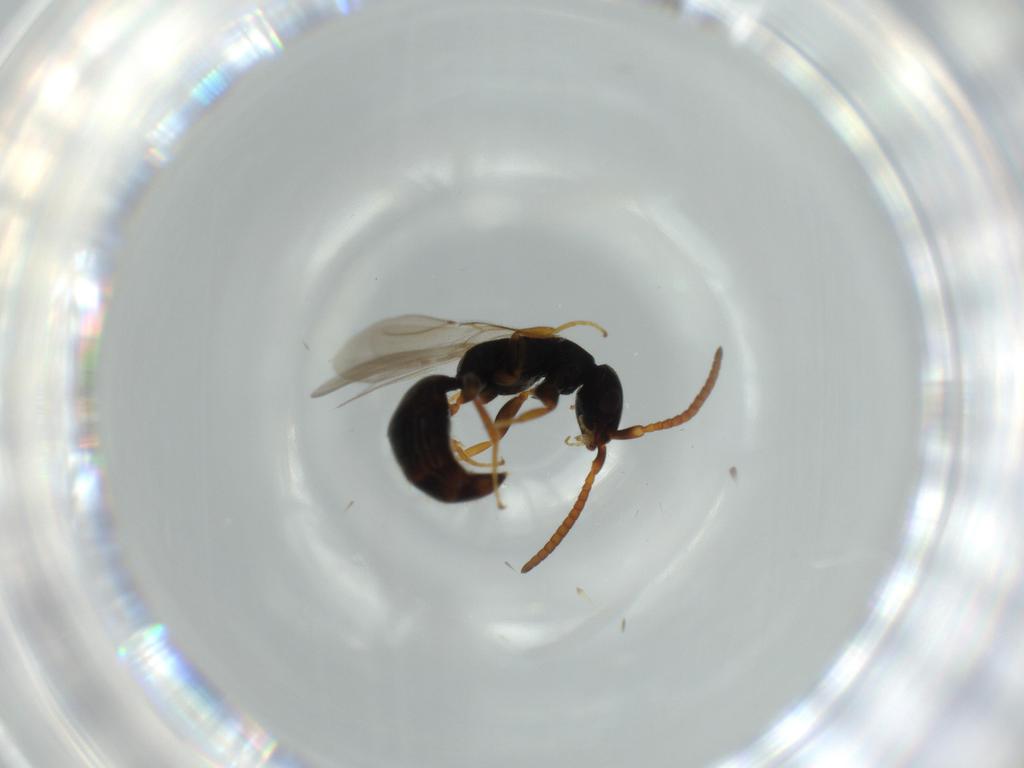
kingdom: Animalia
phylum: Arthropoda
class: Insecta
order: Hymenoptera
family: Bethylidae
